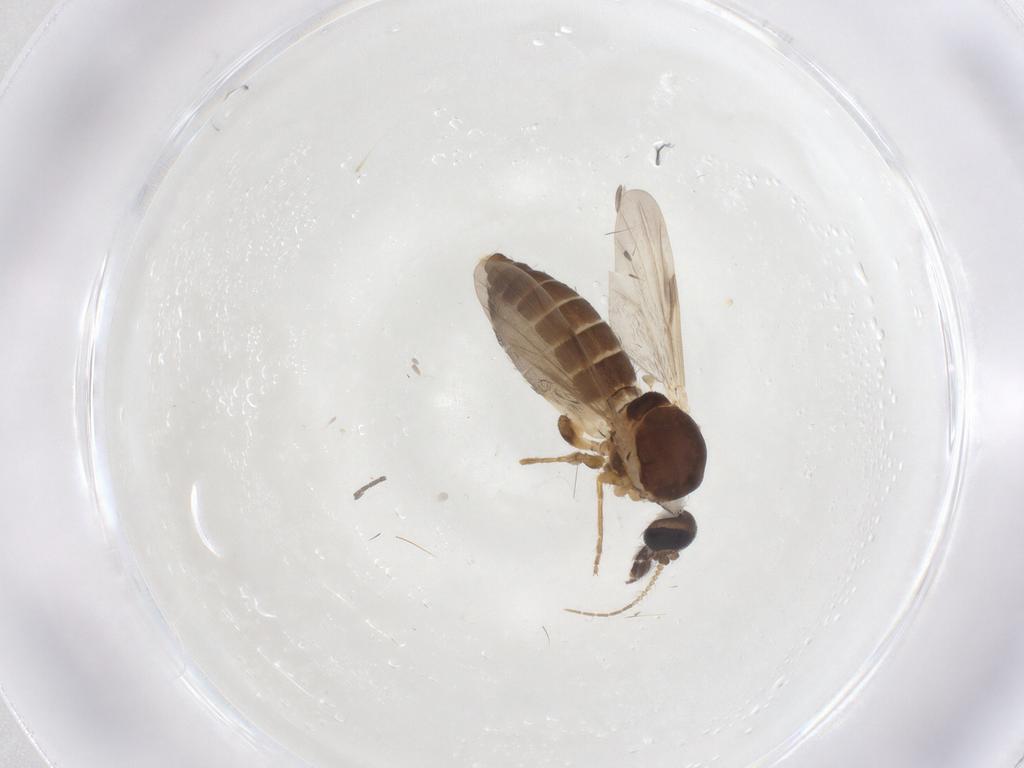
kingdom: Animalia
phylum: Arthropoda
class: Insecta
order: Diptera
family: Ceratopogonidae
